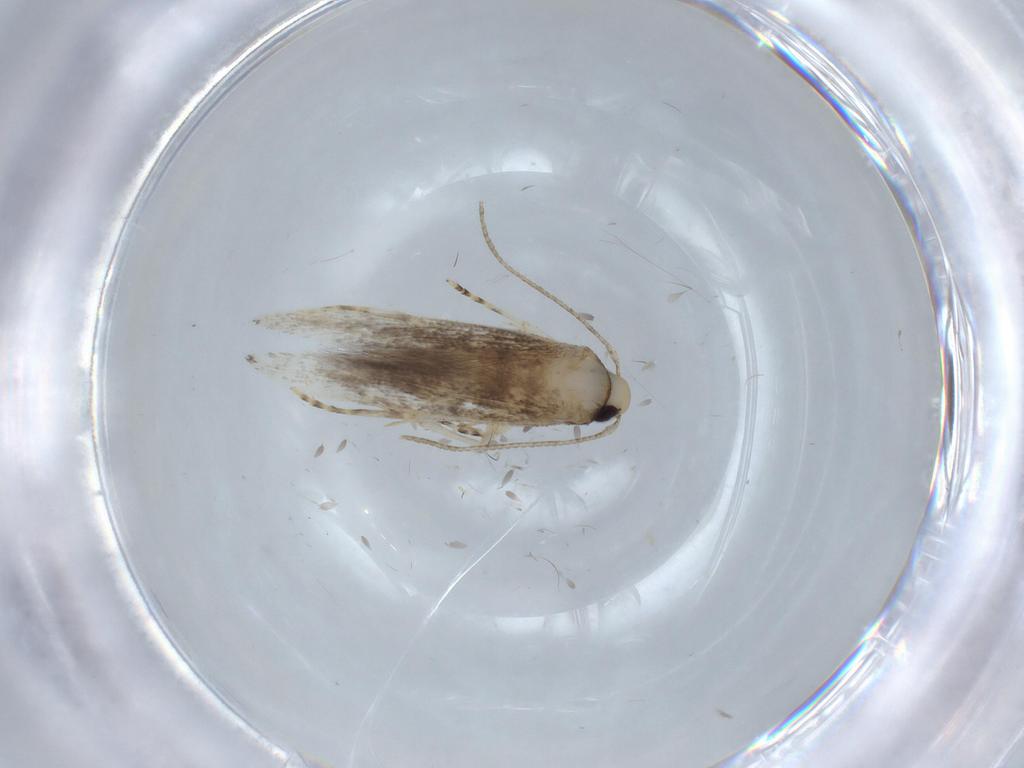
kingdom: Animalia
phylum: Arthropoda
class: Insecta
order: Lepidoptera
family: Momphidae
